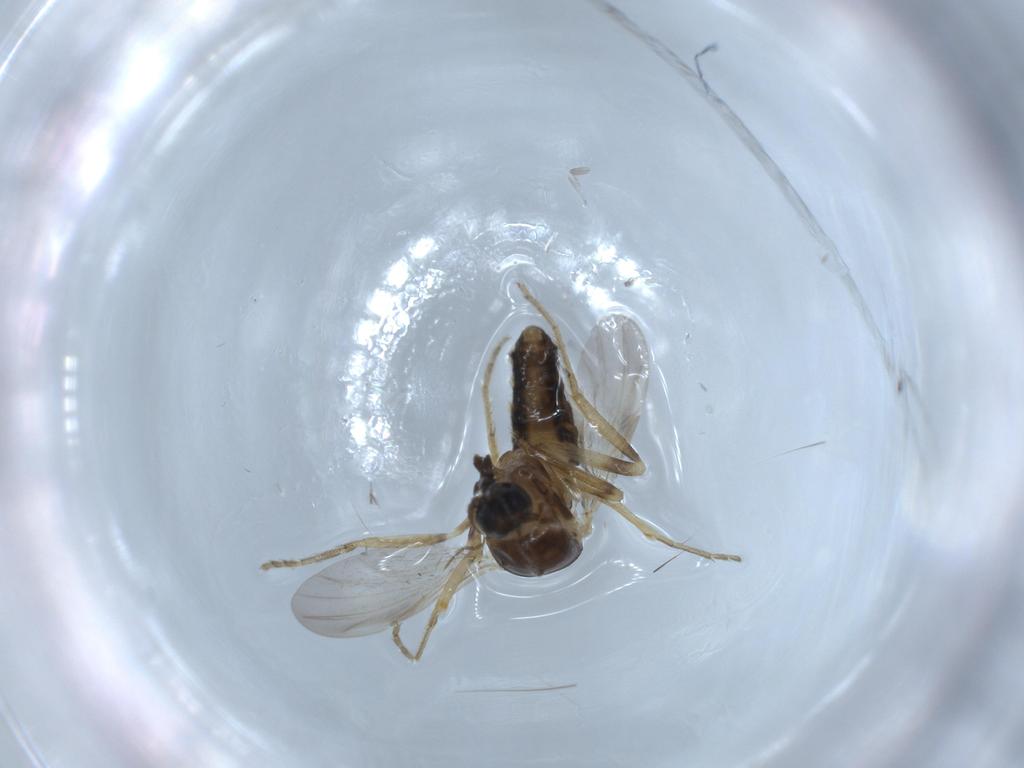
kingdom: Animalia
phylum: Arthropoda
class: Insecta
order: Diptera
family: Ceratopogonidae
